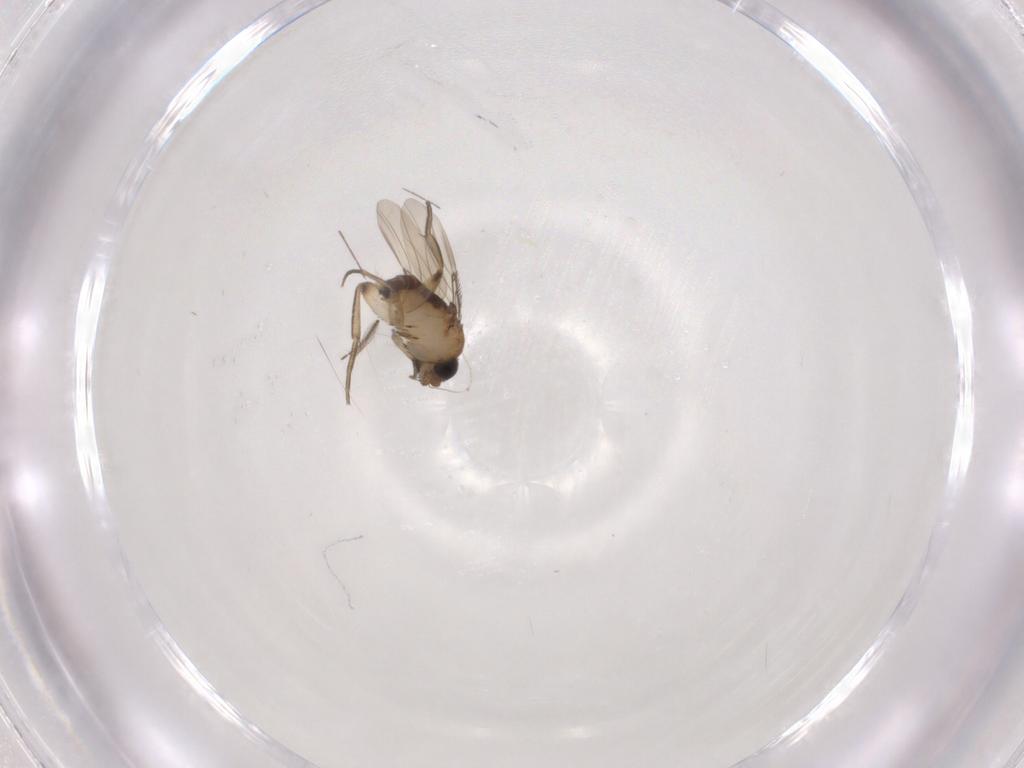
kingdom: Animalia
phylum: Arthropoda
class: Insecta
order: Diptera
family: Phoridae
